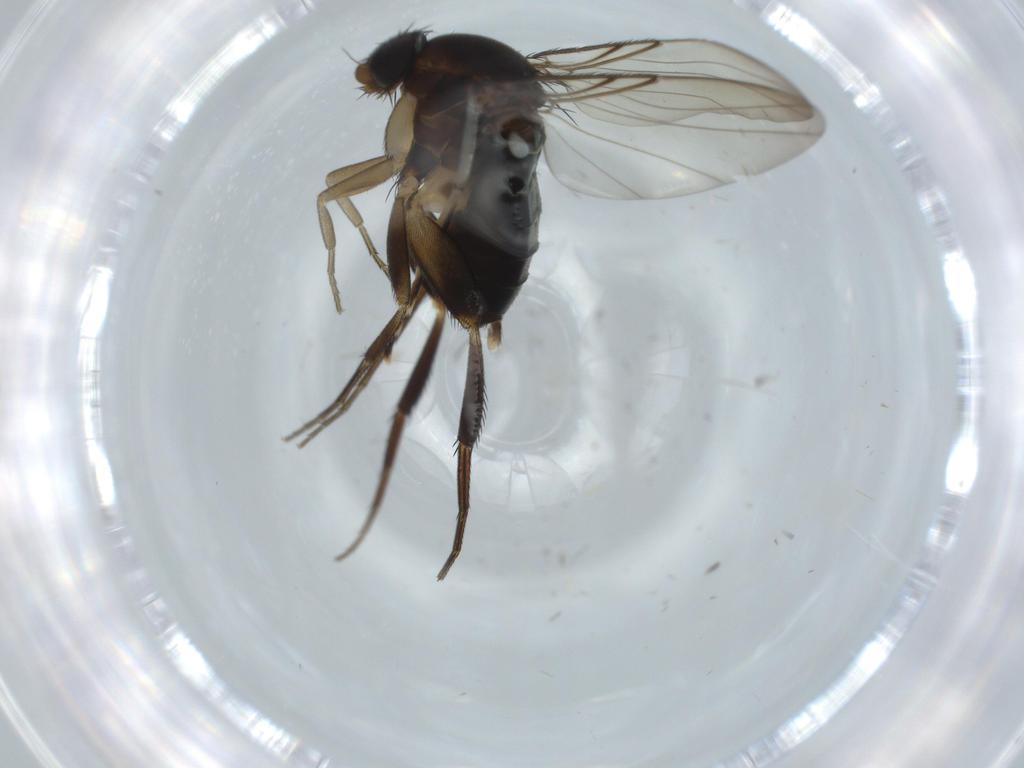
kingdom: Animalia
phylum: Arthropoda
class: Insecta
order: Diptera
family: Phoridae
